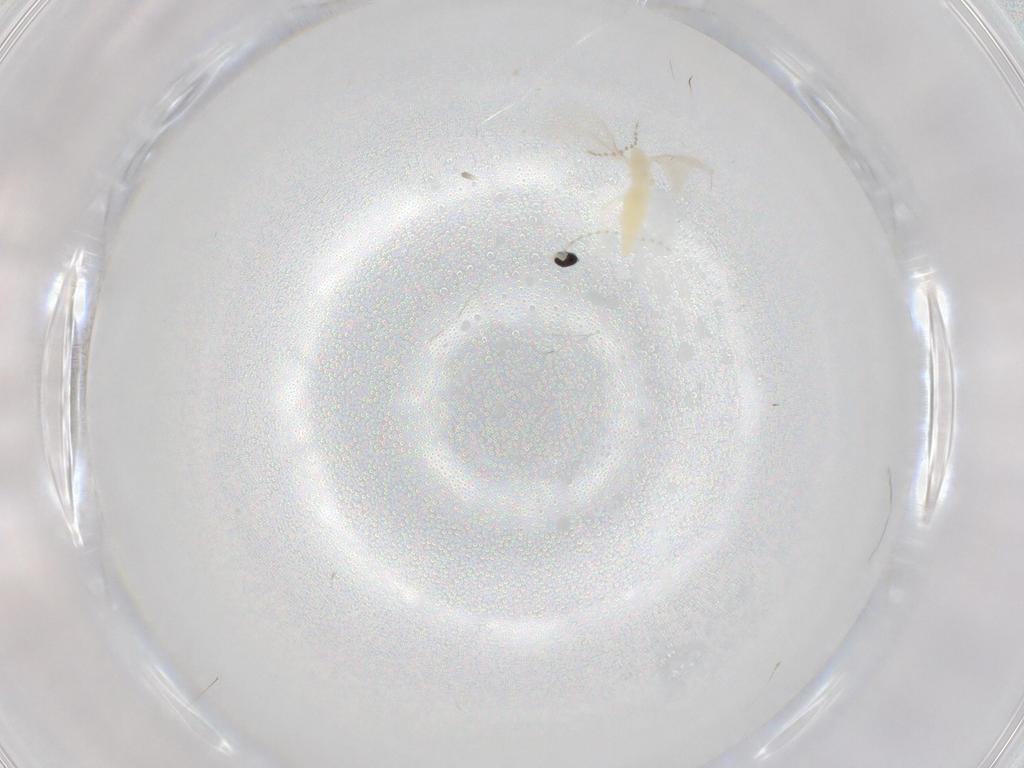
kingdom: Animalia
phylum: Arthropoda
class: Insecta
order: Diptera
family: Cecidomyiidae
